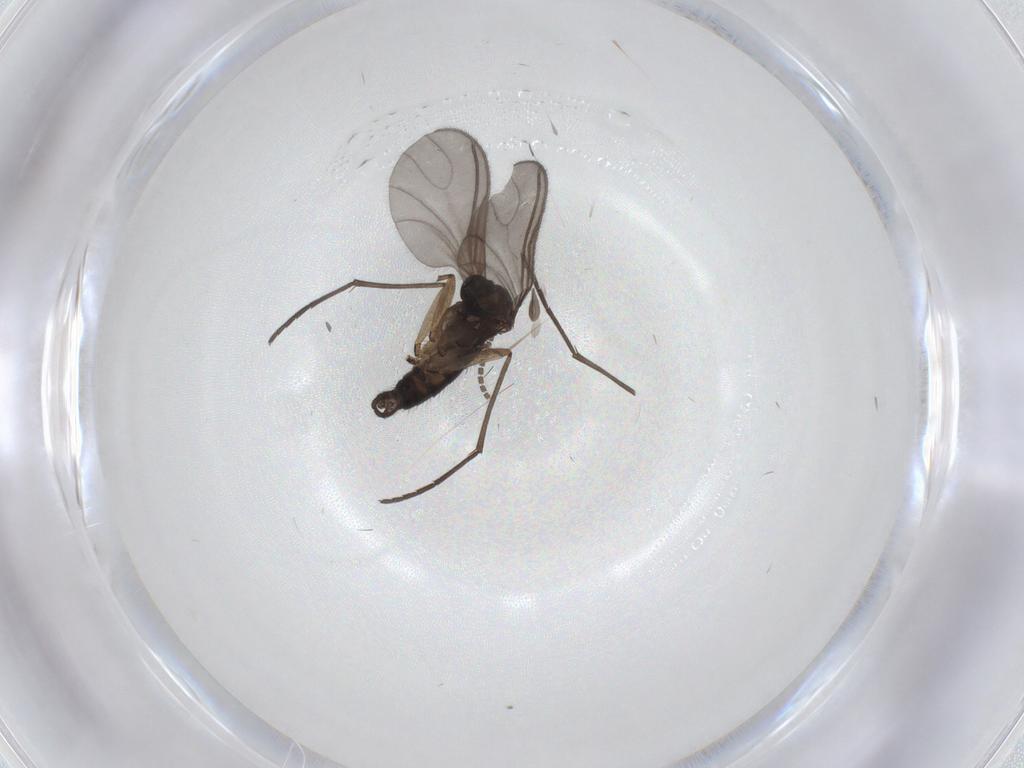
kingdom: Animalia
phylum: Arthropoda
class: Insecta
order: Diptera
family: Sciaridae
